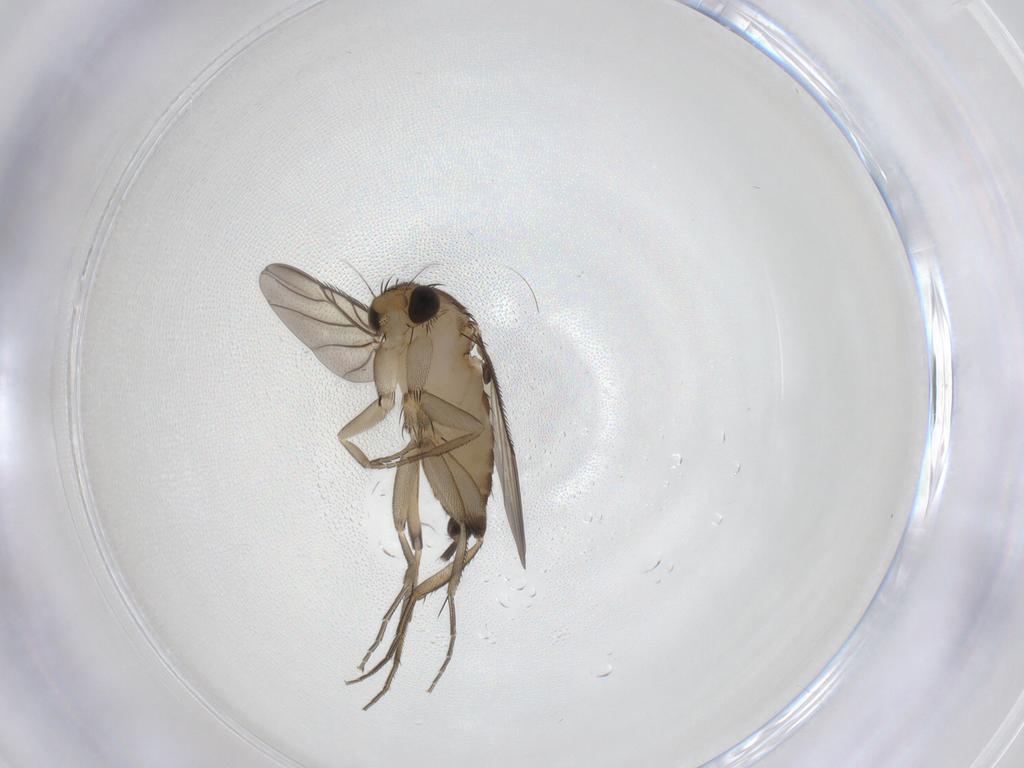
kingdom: Animalia
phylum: Arthropoda
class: Insecta
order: Diptera
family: Phoridae
